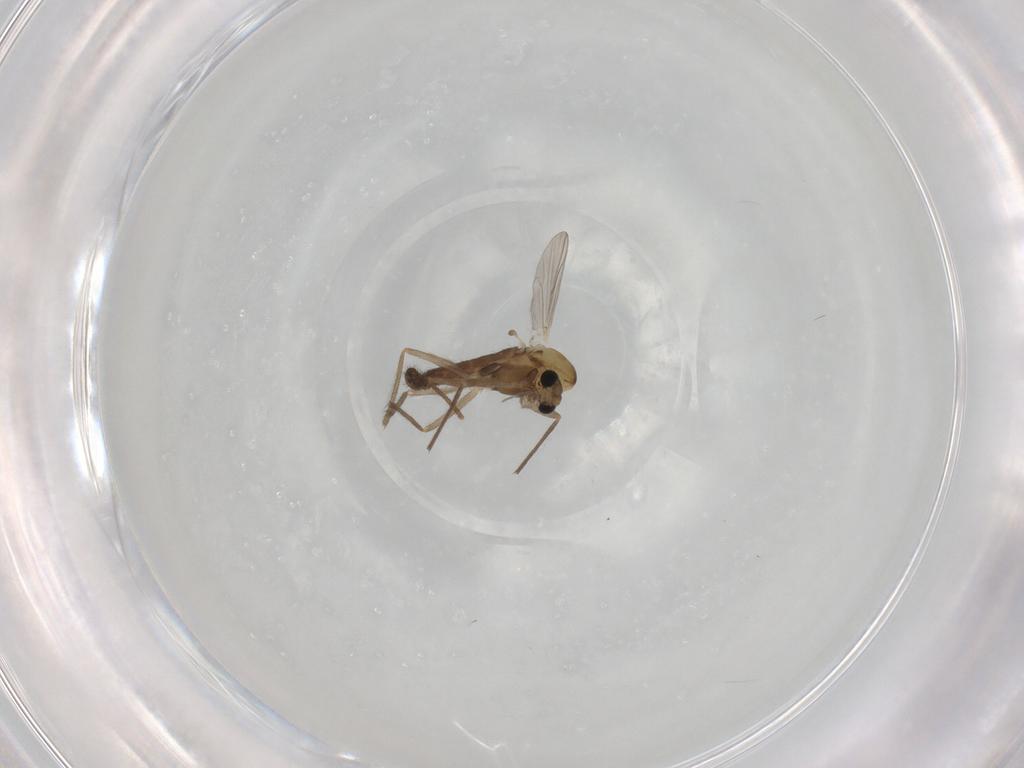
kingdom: Animalia
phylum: Arthropoda
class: Insecta
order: Diptera
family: Chironomidae
